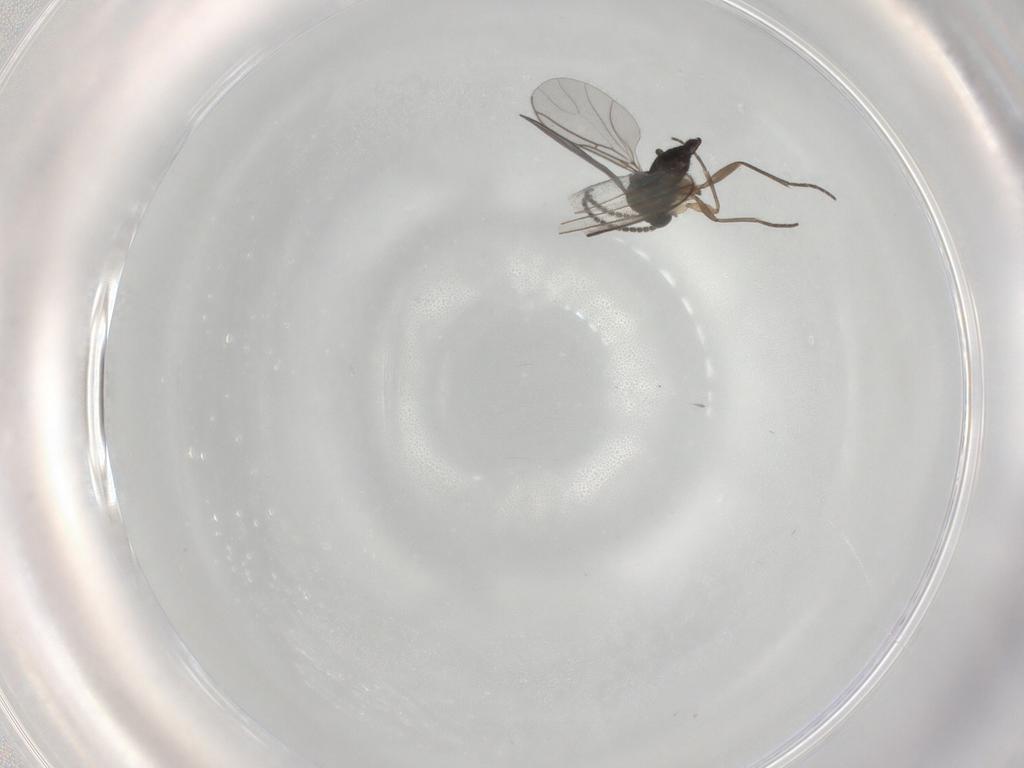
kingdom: Animalia
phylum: Arthropoda
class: Insecta
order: Diptera
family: Sciaridae
